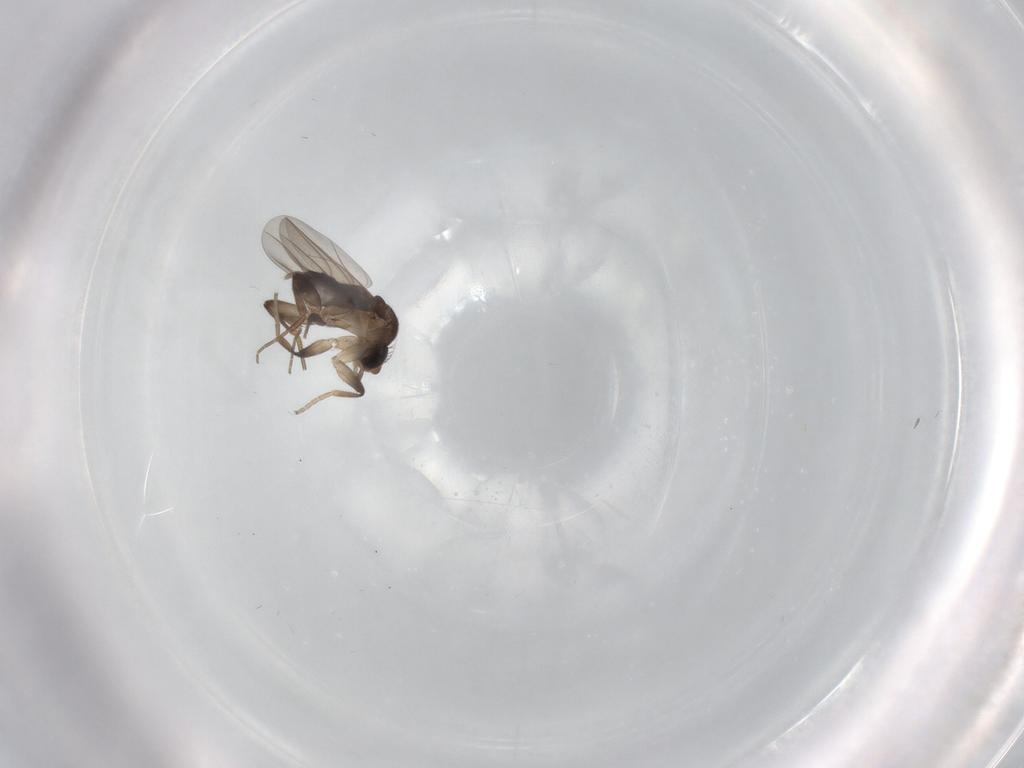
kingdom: Animalia
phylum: Arthropoda
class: Insecta
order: Diptera
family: Phoridae
